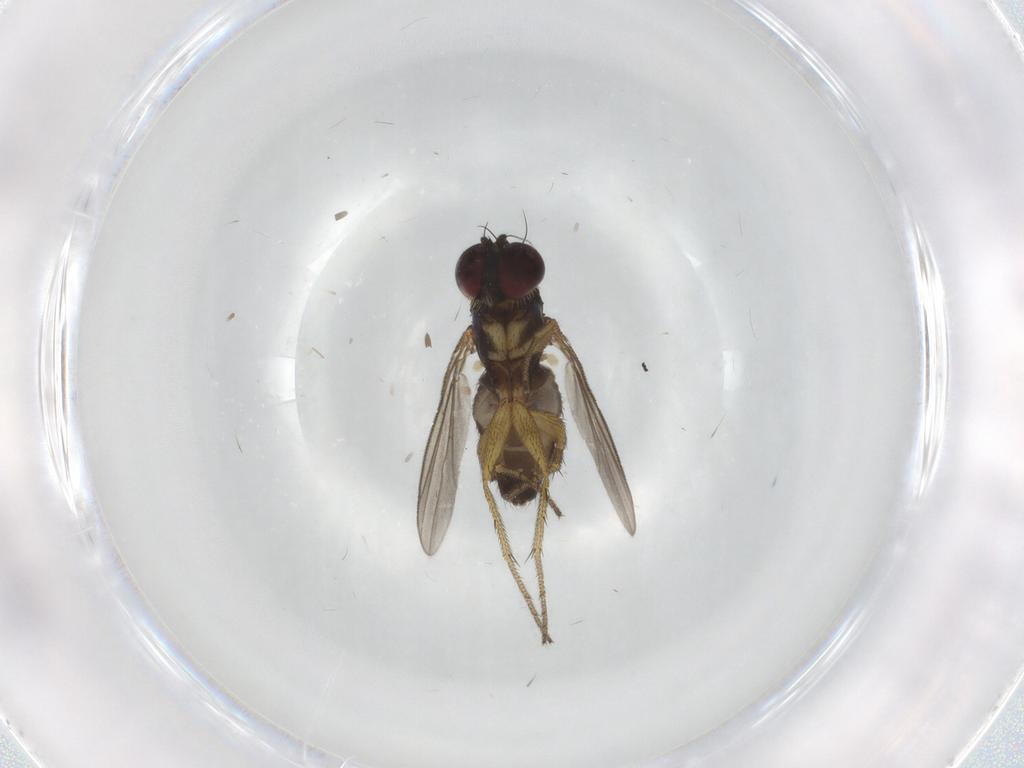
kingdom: Animalia
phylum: Arthropoda
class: Insecta
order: Diptera
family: Dolichopodidae
